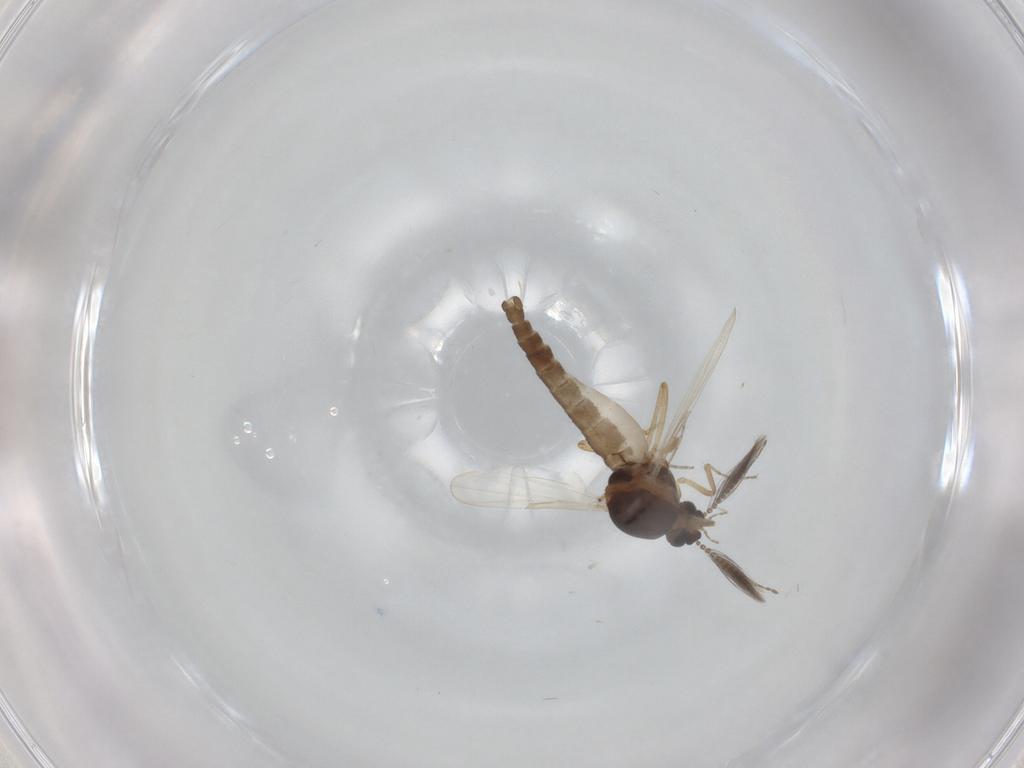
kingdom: Animalia
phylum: Arthropoda
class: Insecta
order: Diptera
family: Ceratopogonidae
